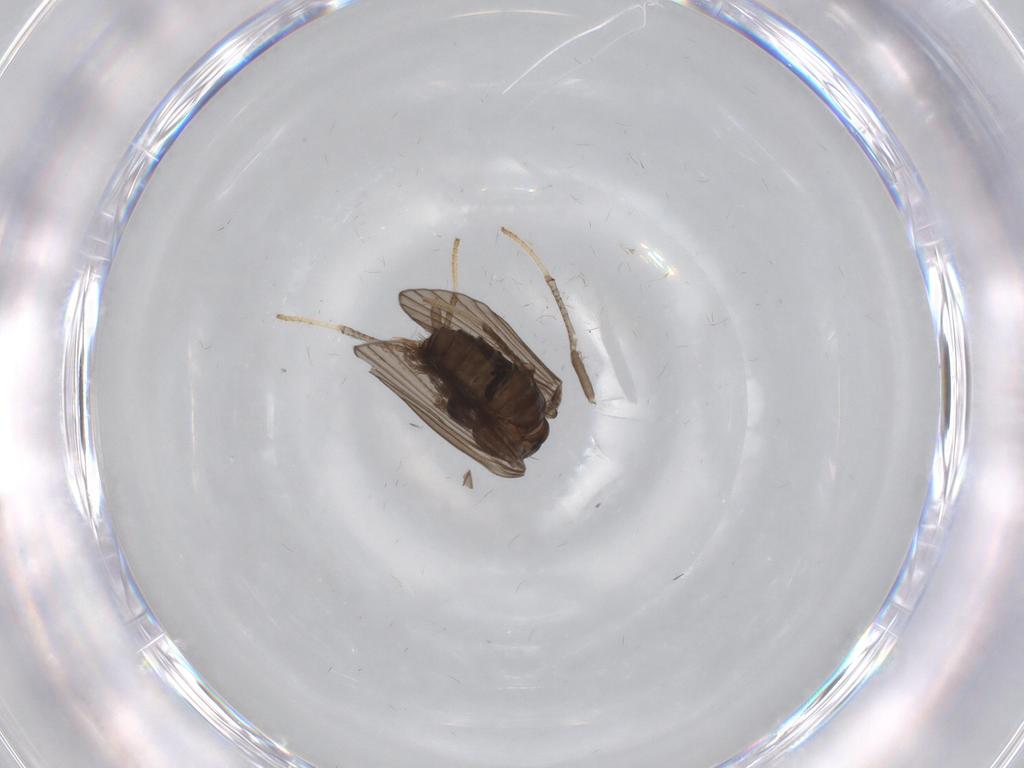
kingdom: Animalia
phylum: Arthropoda
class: Insecta
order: Diptera
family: Psychodidae
